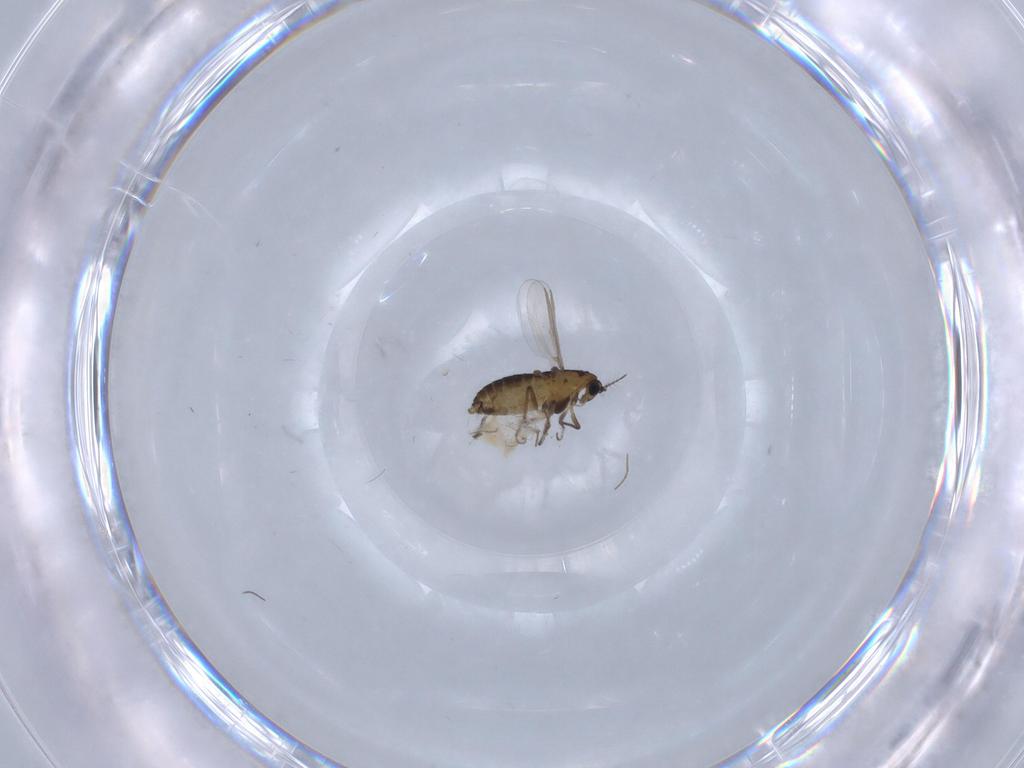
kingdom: Animalia
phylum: Arthropoda
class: Insecta
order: Diptera
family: Chironomidae
